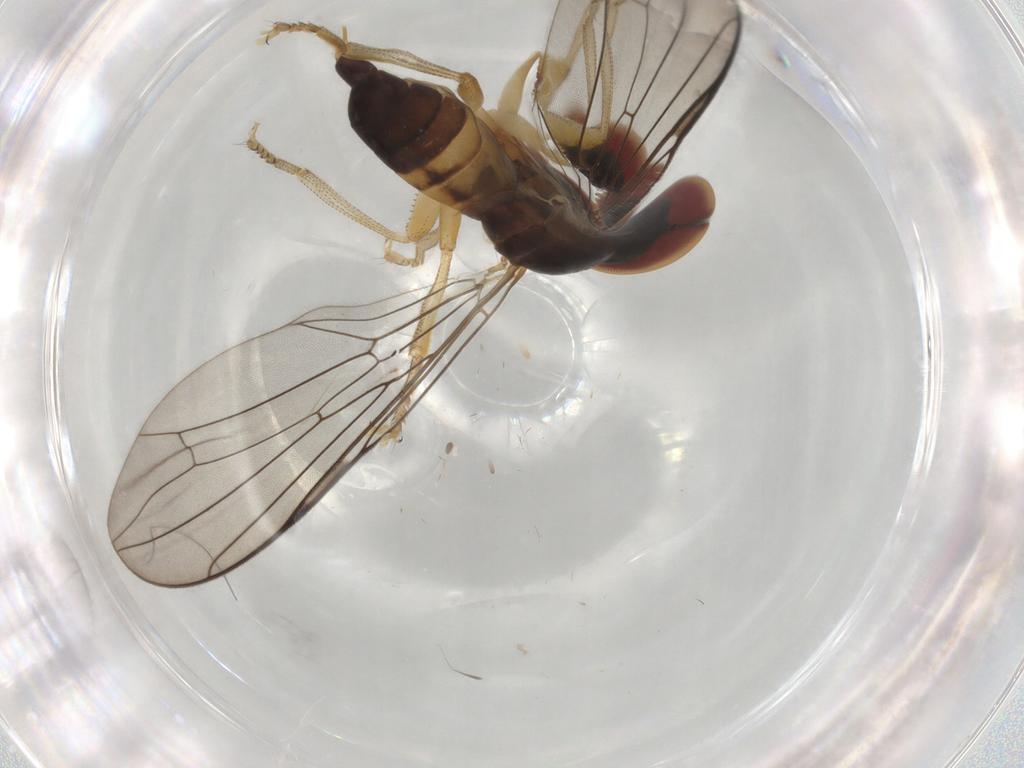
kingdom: Animalia
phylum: Arthropoda
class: Insecta
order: Diptera
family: Pipunculidae
